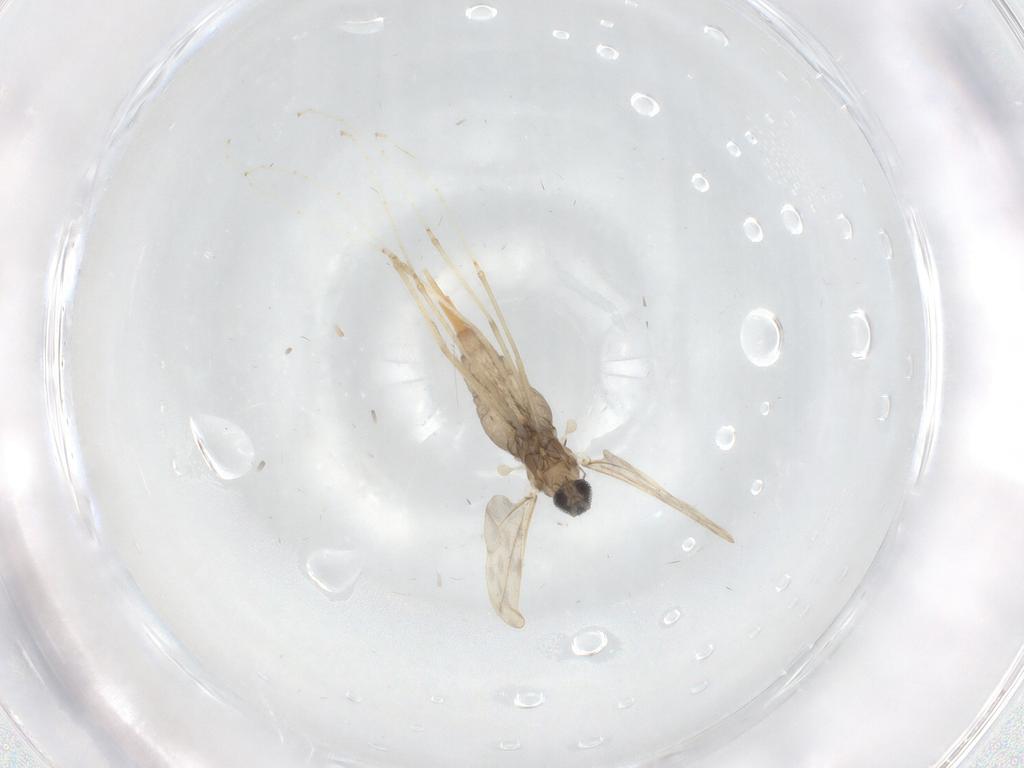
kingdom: Animalia
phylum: Arthropoda
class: Insecta
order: Diptera
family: Cecidomyiidae
